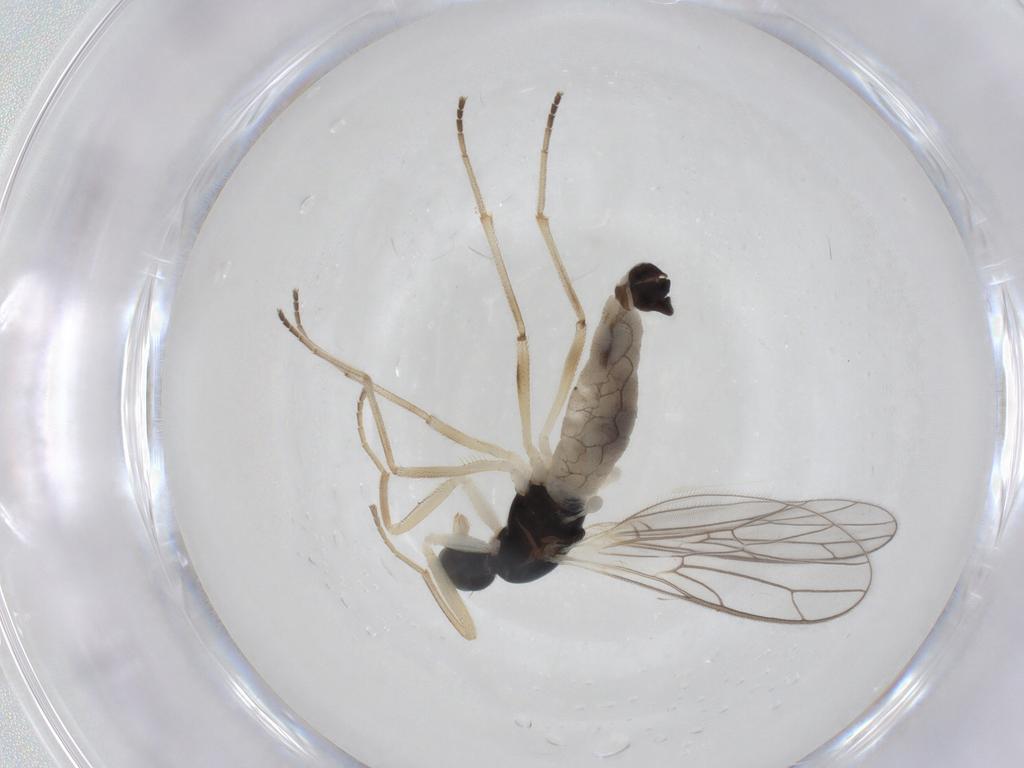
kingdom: Animalia
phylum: Arthropoda
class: Insecta
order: Diptera
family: Empididae
